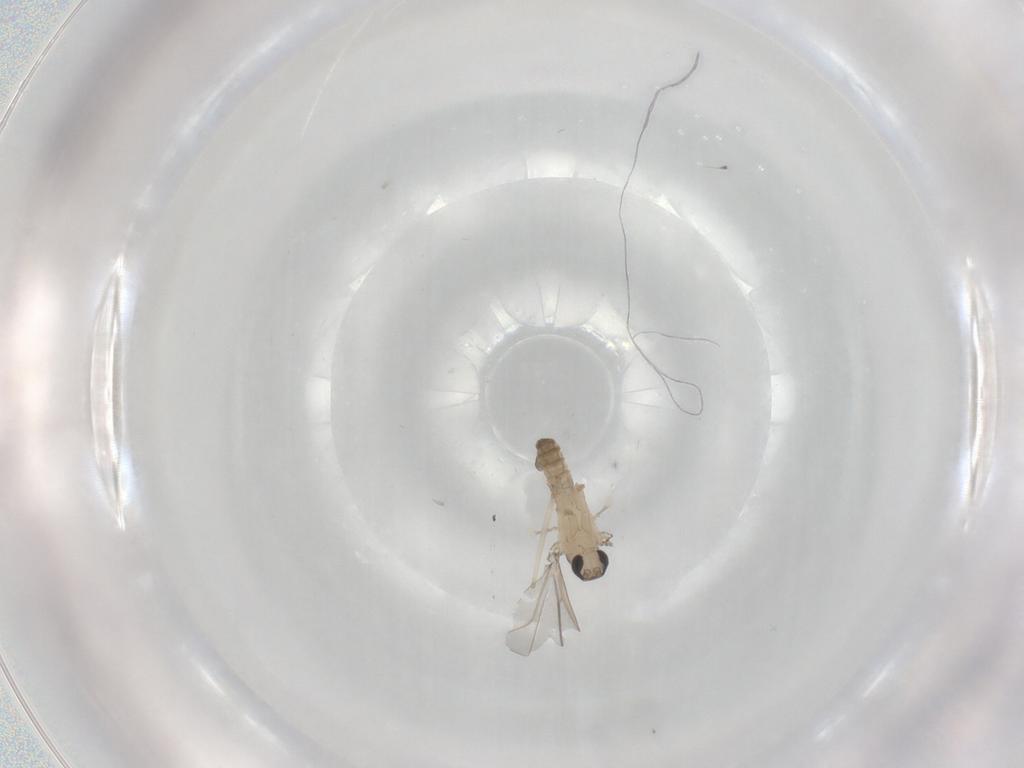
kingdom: Animalia
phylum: Arthropoda
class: Insecta
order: Diptera
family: Cecidomyiidae
